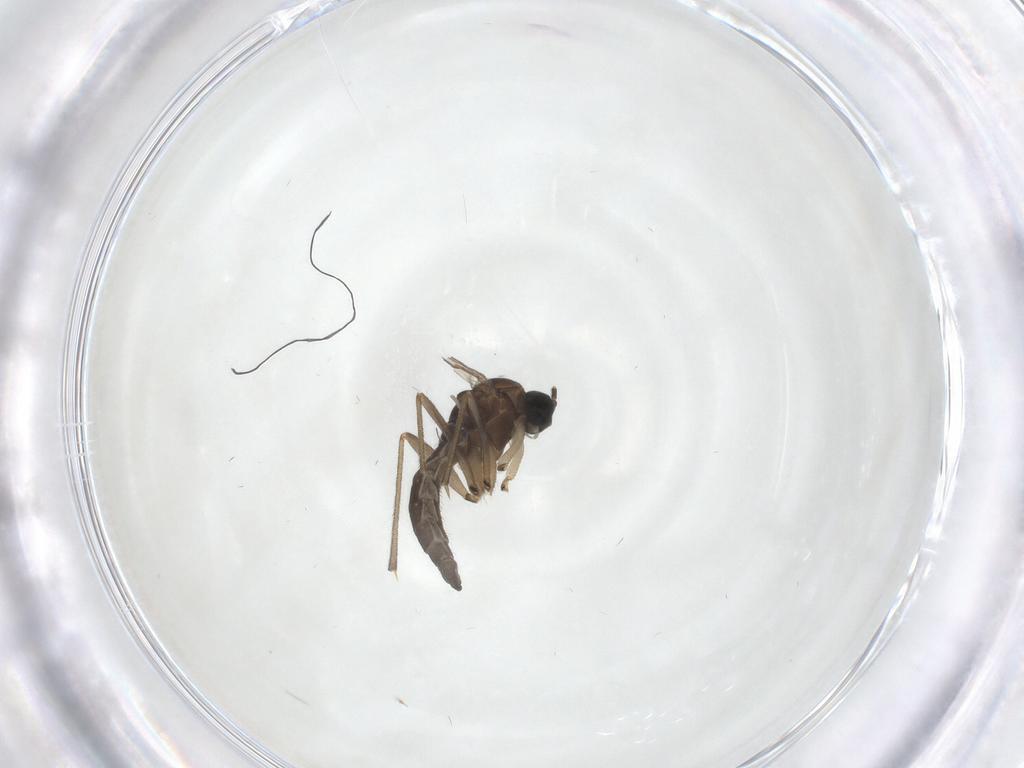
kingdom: Animalia
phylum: Arthropoda
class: Insecta
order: Diptera
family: Sciaridae
